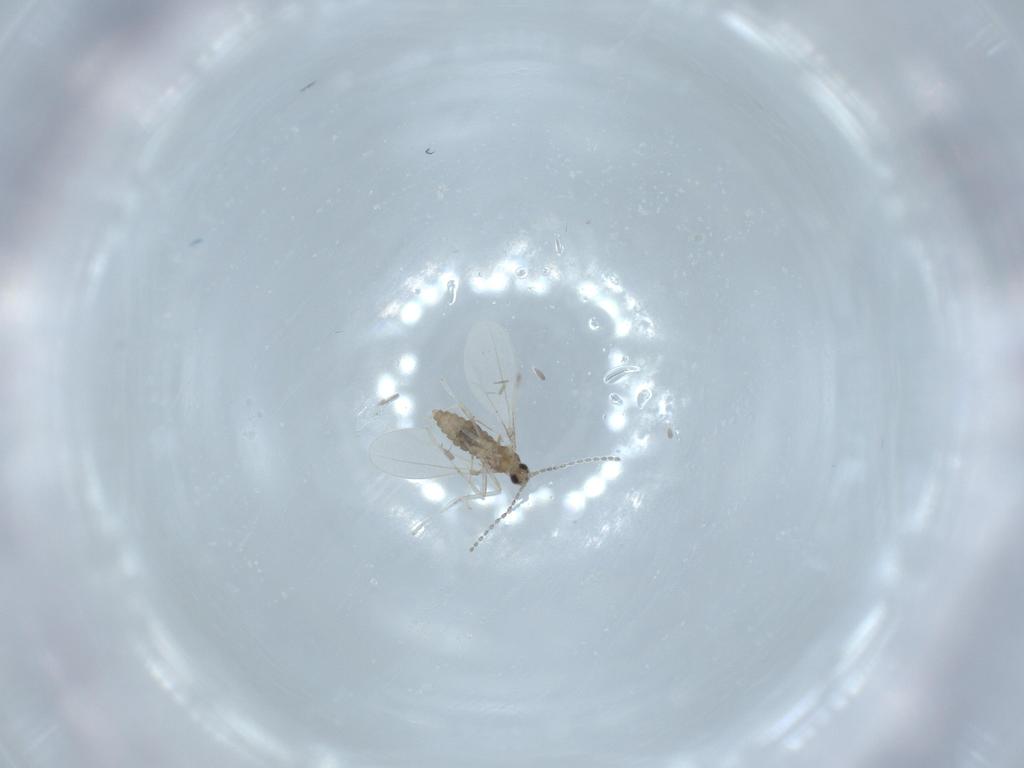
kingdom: Animalia
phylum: Arthropoda
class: Insecta
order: Diptera
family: Cecidomyiidae
